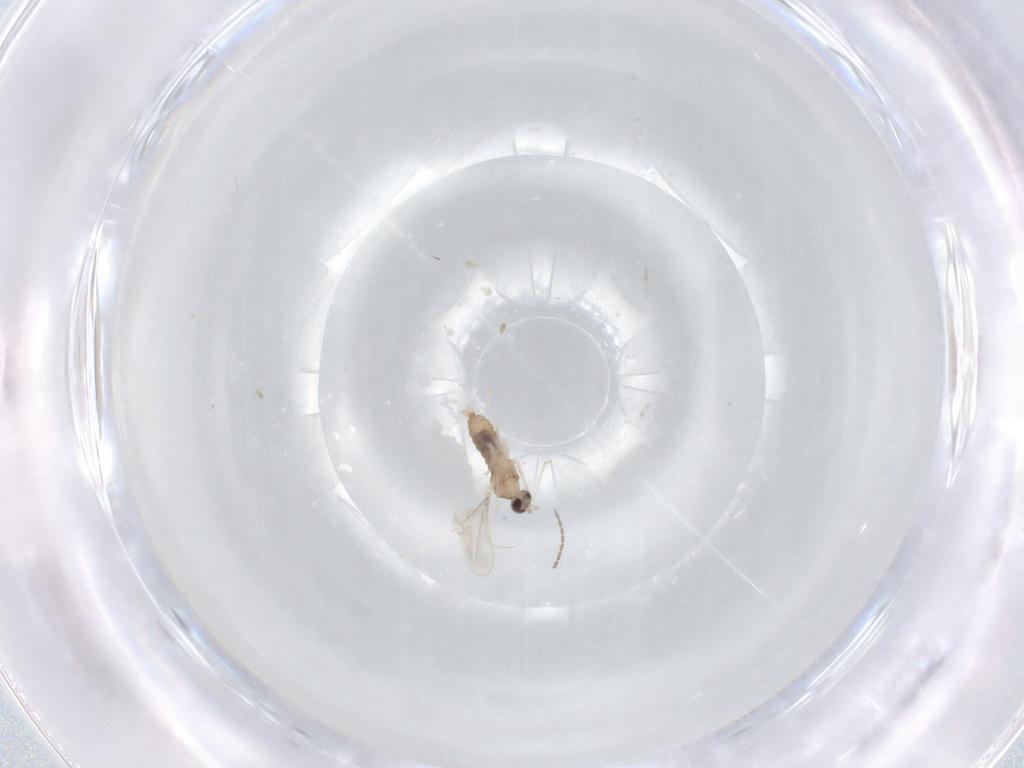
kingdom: Animalia
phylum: Arthropoda
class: Insecta
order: Diptera
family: Cecidomyiidae
